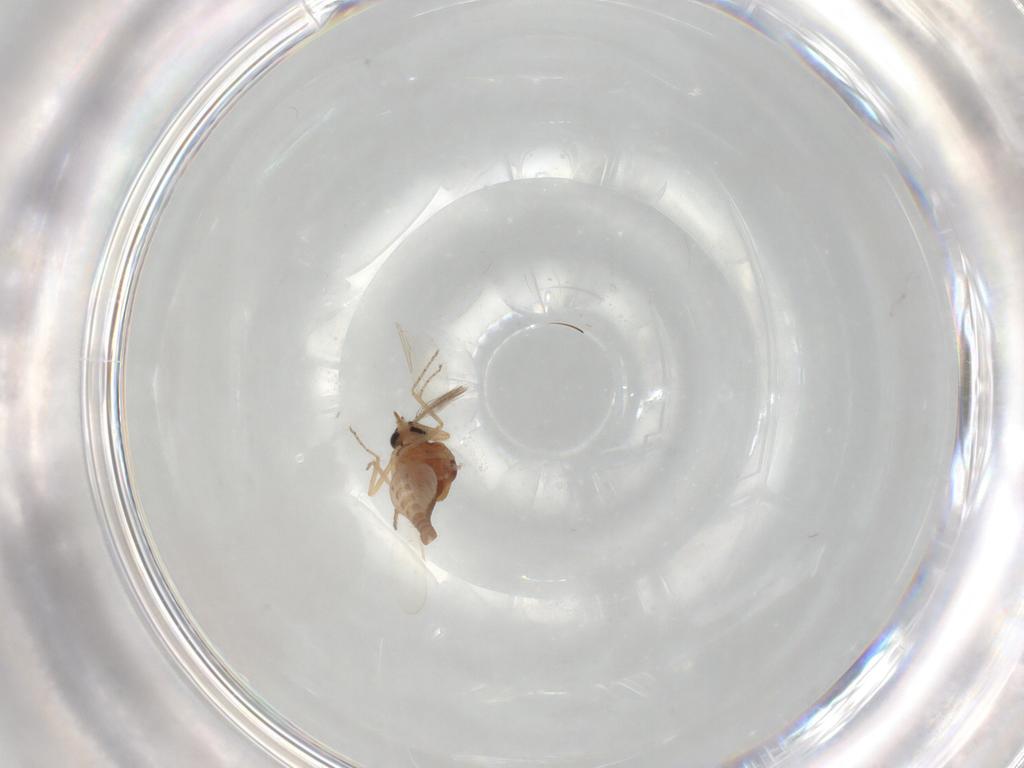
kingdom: Animalia
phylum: Arthropoda
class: Insecta
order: Diptera
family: Ceratopogonidae
